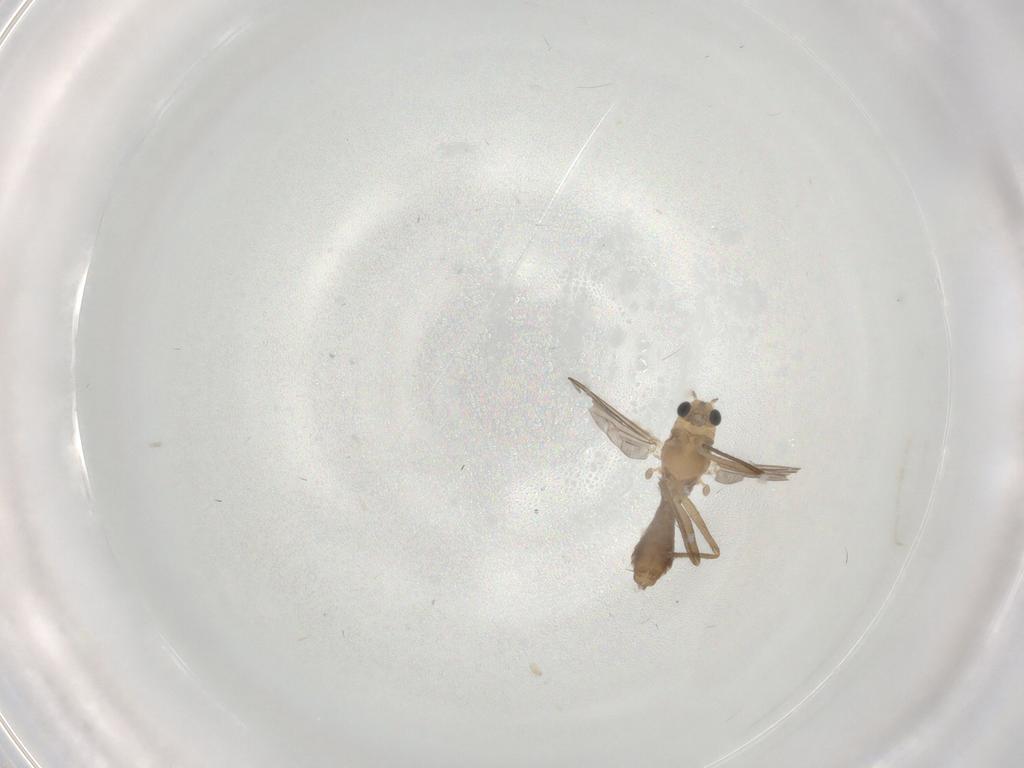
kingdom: Animalia
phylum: Arthropoda
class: Insecta
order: Diptera
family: Chironomidae
